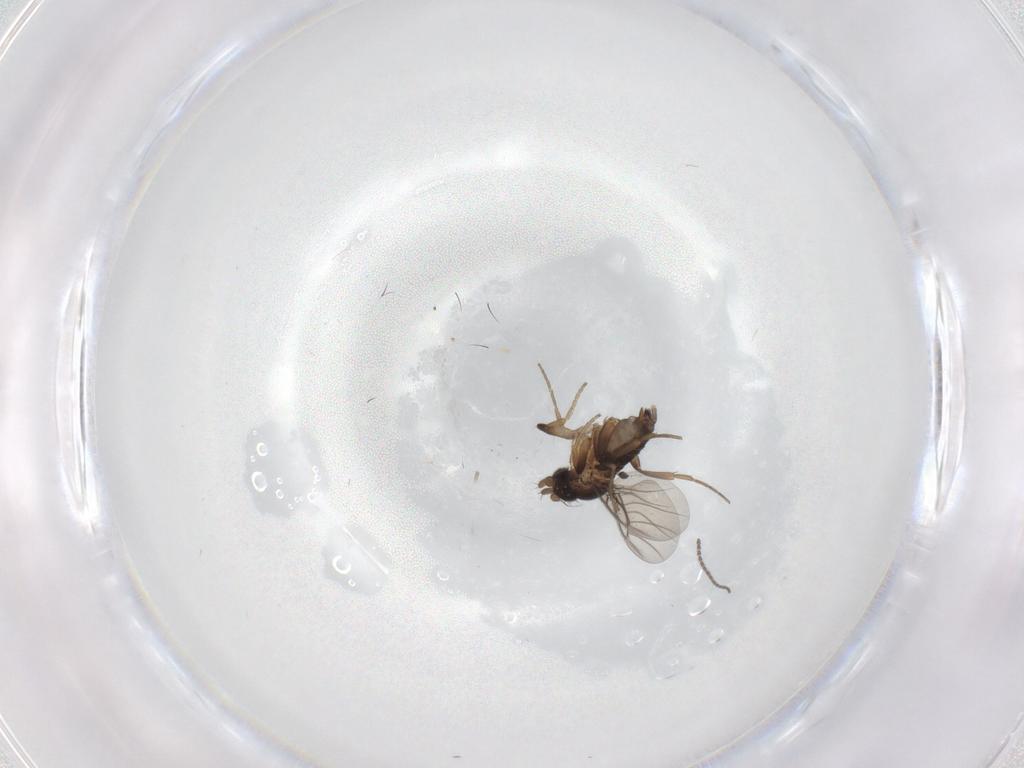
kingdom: Animalia
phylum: Arthropoda
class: Insecta
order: Diptera
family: Sciaridae
